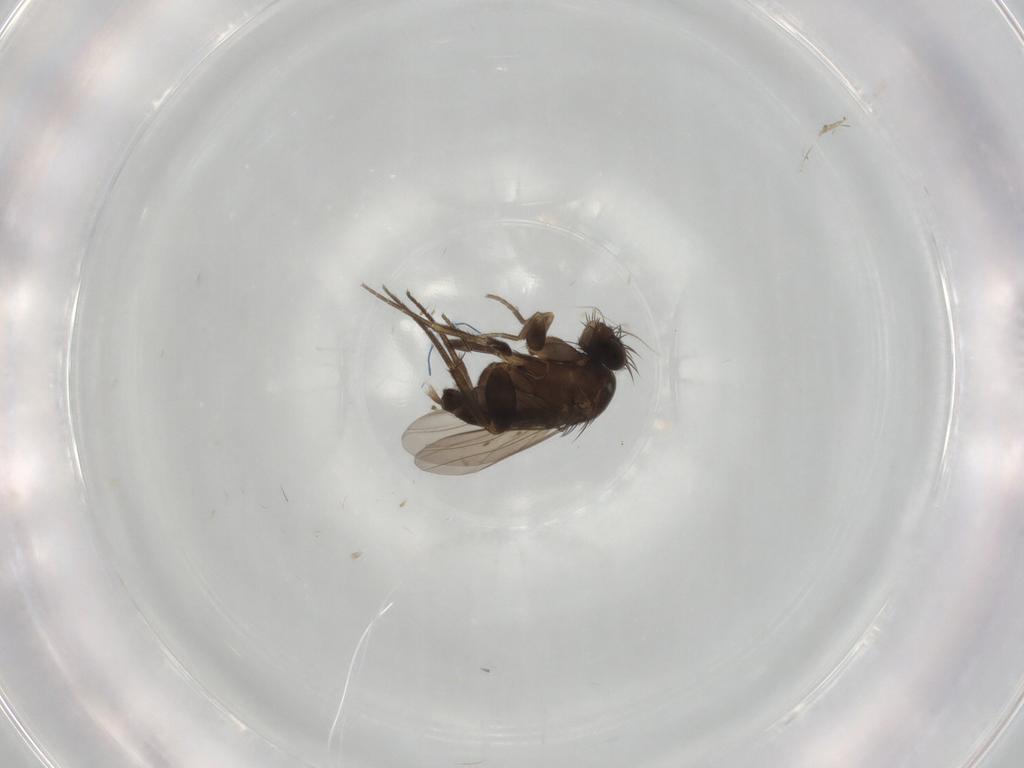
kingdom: Animalia
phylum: Arthropoda
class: Insecta
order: Diptera
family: Phoridae
